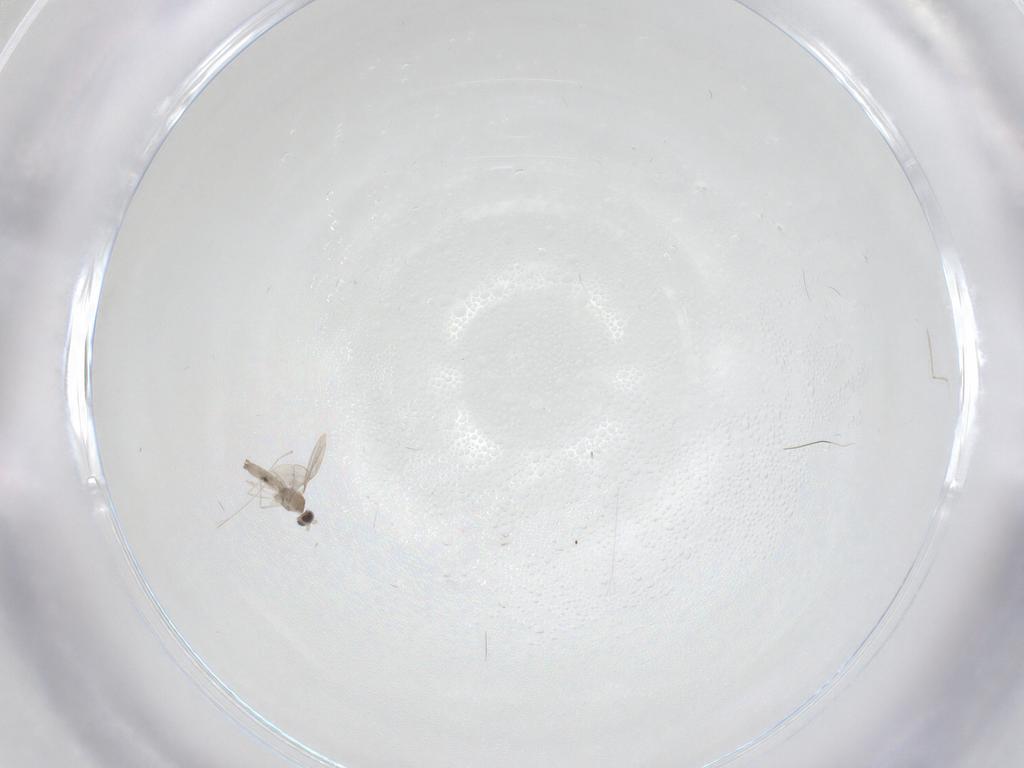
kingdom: Animalia
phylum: Arthropoda
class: Insecta
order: Diptera
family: Cecidomyiidae
